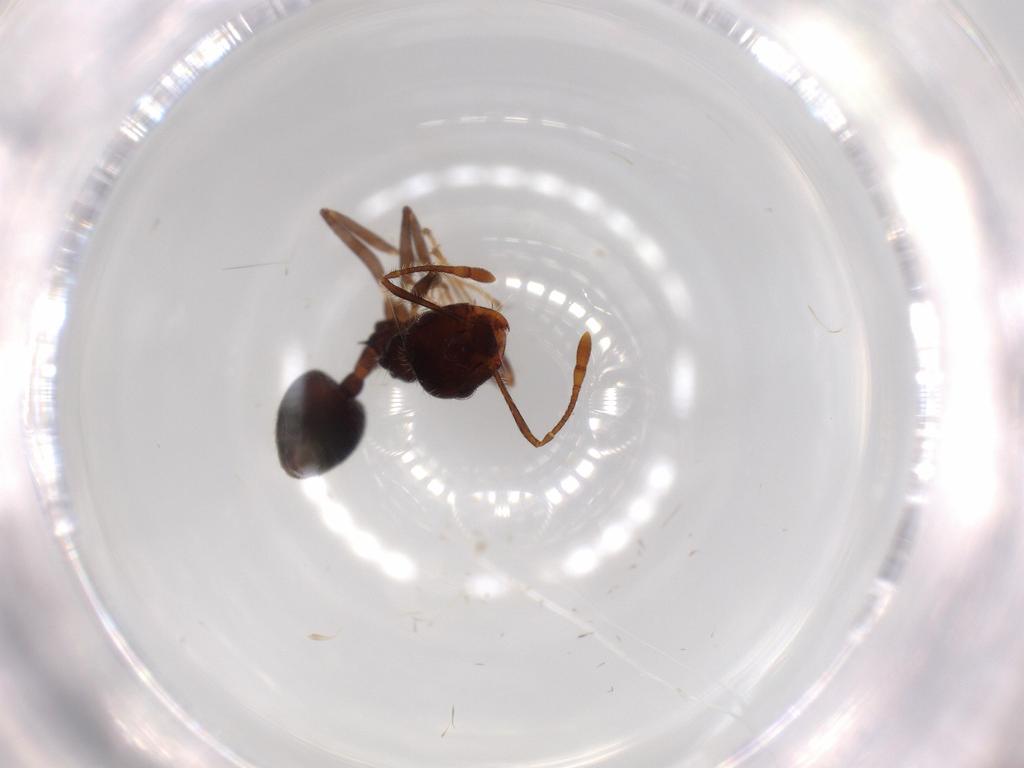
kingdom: Animalia
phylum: Arthropoda
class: Insecta
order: Hymenoptera
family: Formicidae
